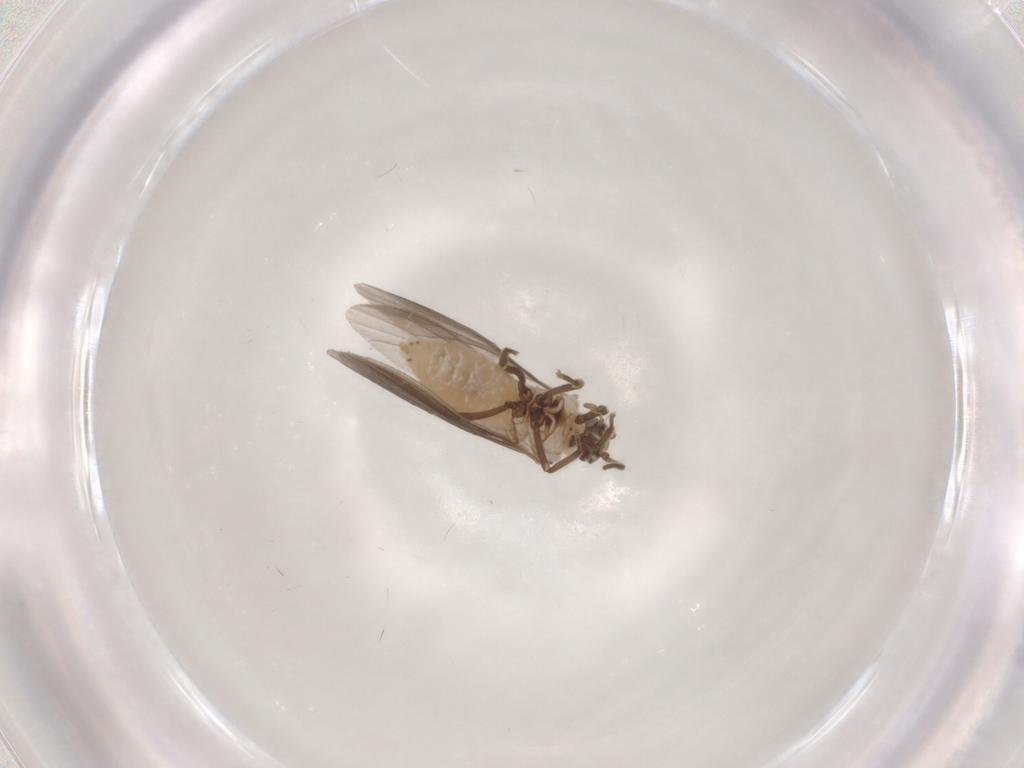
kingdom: Animalia
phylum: Arthropoda
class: Insecta
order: Neuroptera
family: Coniopterygidae
